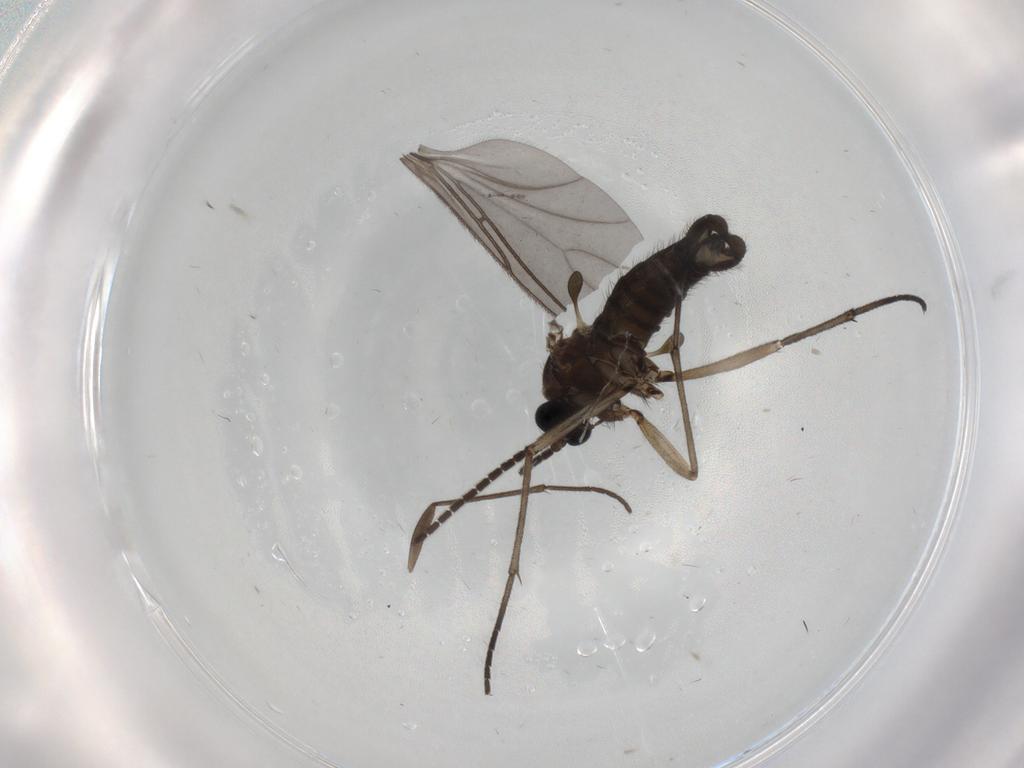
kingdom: Animalia
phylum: Arthropoda
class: Insecta
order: Diptera
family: Sciaridae
